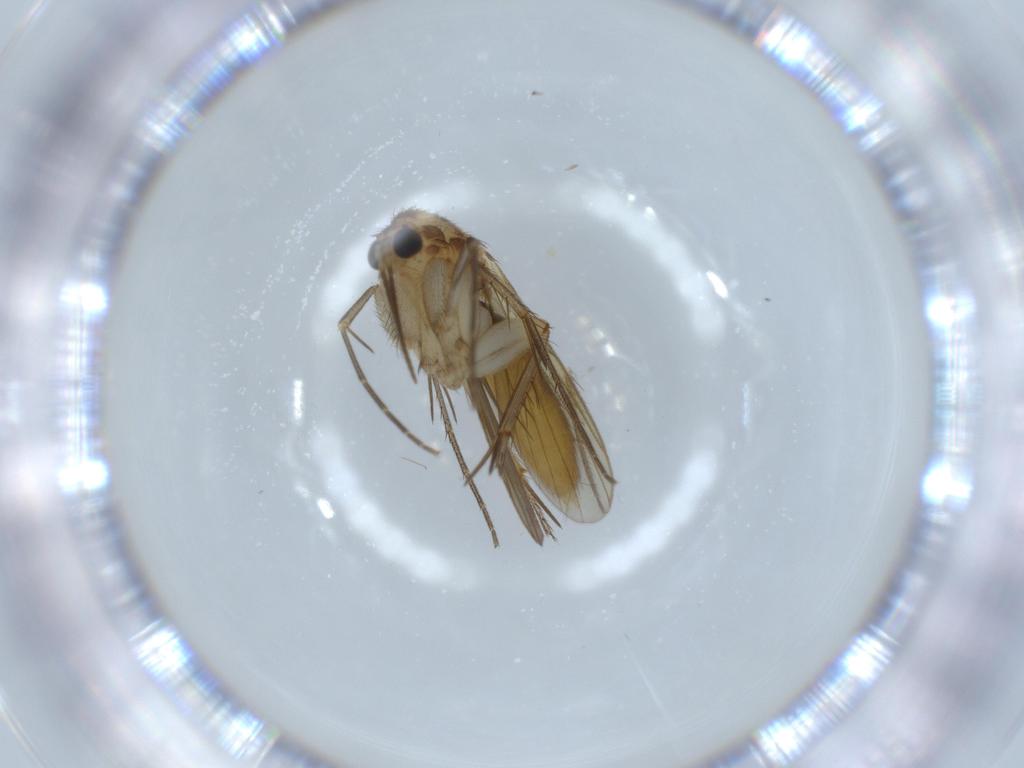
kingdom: Animalia
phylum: Arthropoda
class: Insecta
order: Diptera
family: Mycetophilidae
